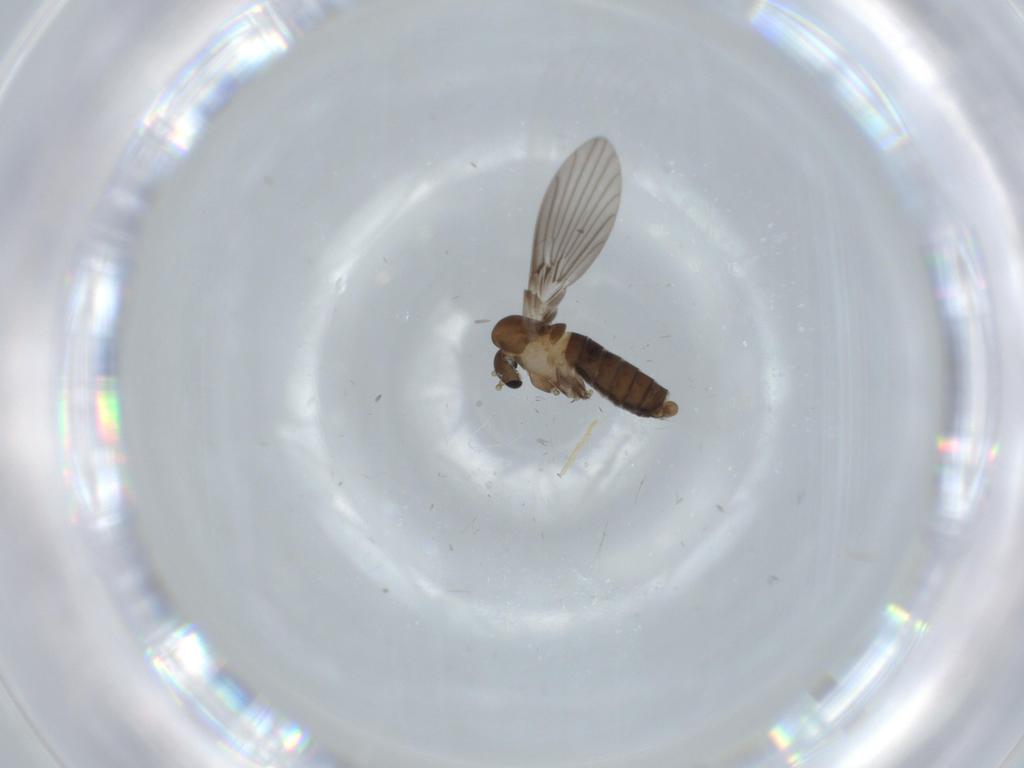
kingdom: Animalia
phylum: Arthropoda
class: Insecta
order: Diptera
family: Psychodidae
